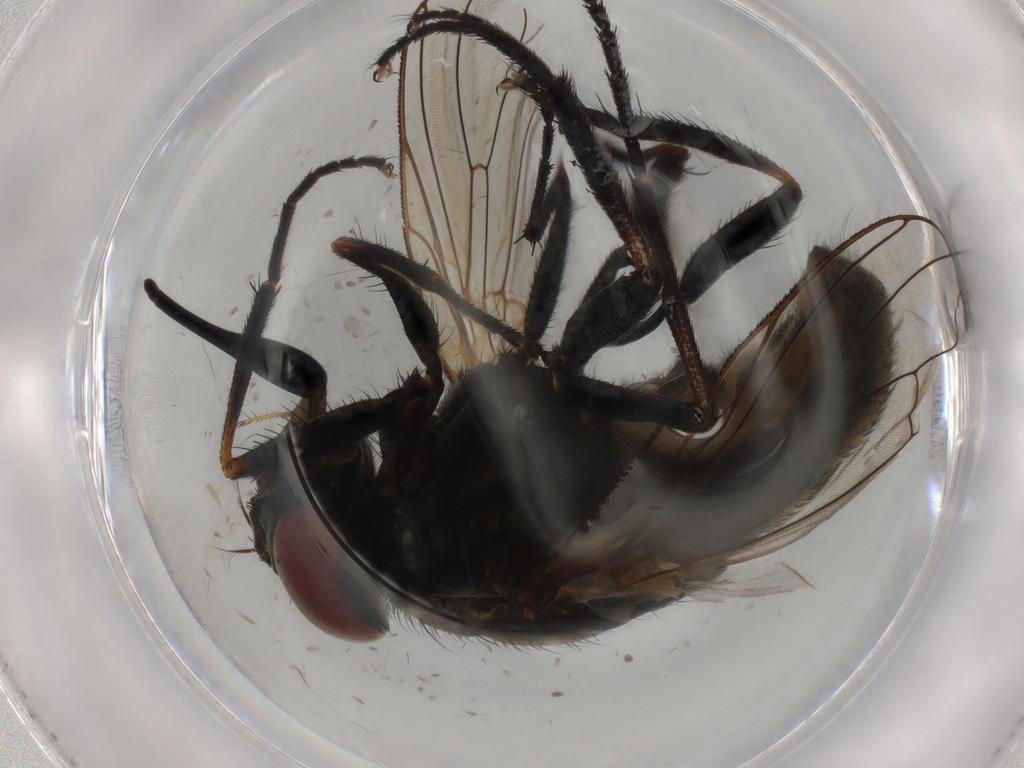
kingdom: Animalia
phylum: Arthropoda
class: Insecta
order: Diptera
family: Muscidae
